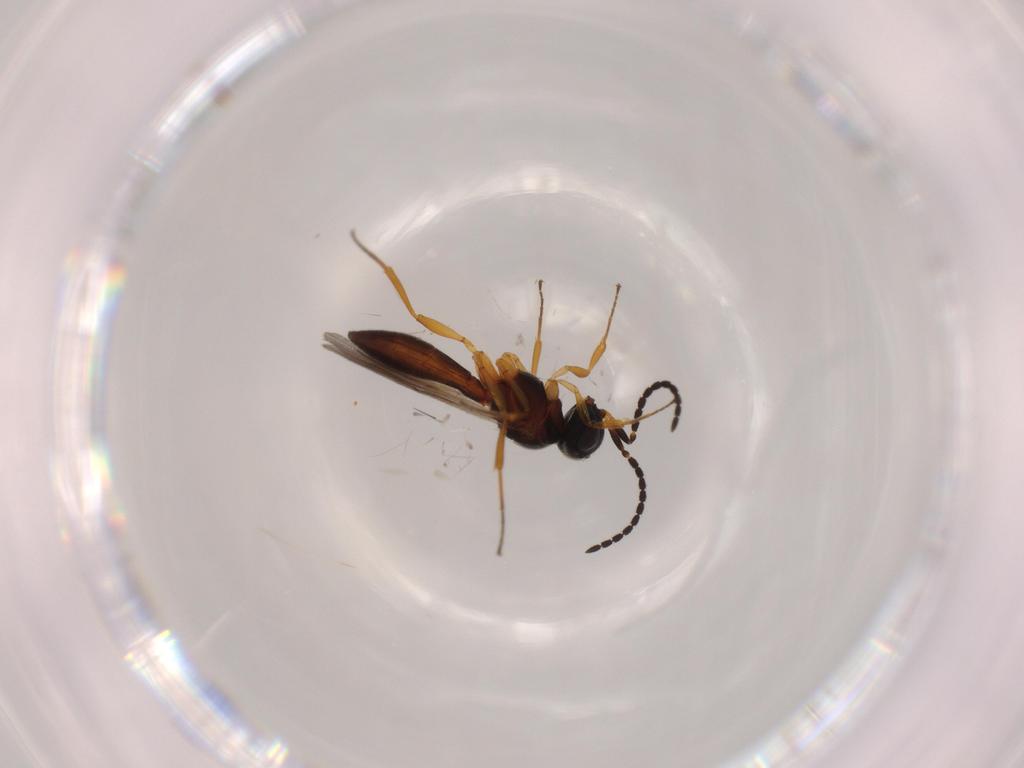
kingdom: Animalia
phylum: Arthropoda
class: Insecta
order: Hymenoptera
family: Scelionidae
